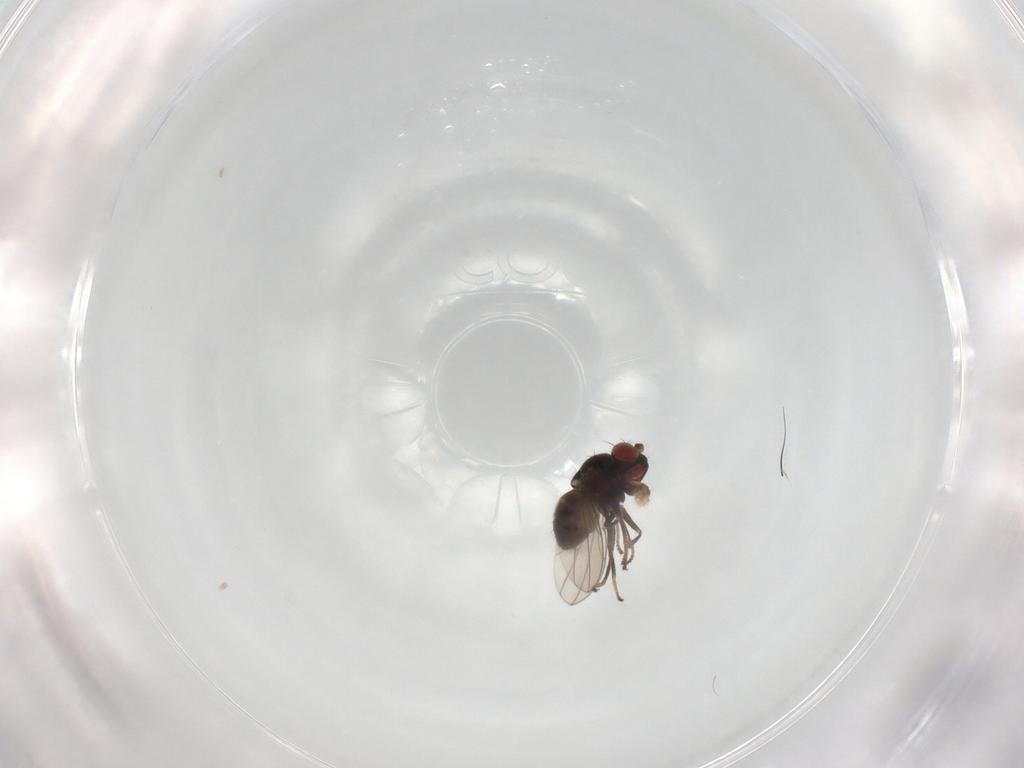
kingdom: Animalia
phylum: Arthropoda
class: Insecta
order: Diptera
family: Ephydridae
